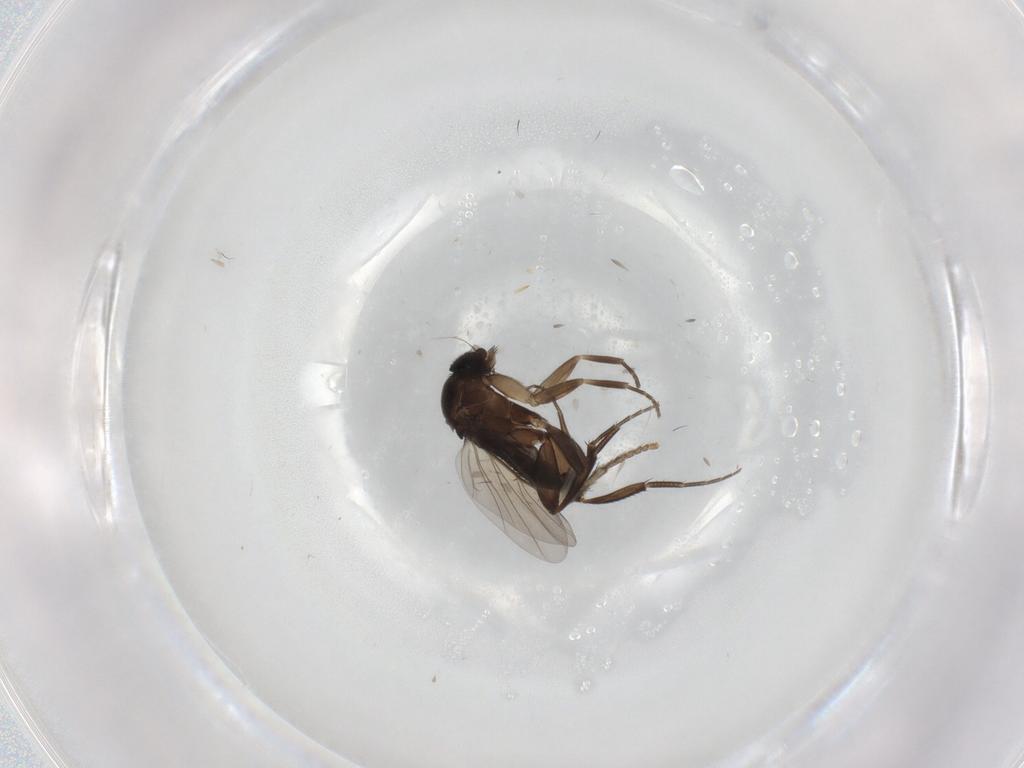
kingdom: Animalia
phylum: Arthropoda
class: Insecta
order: Diptera
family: Phoridae
